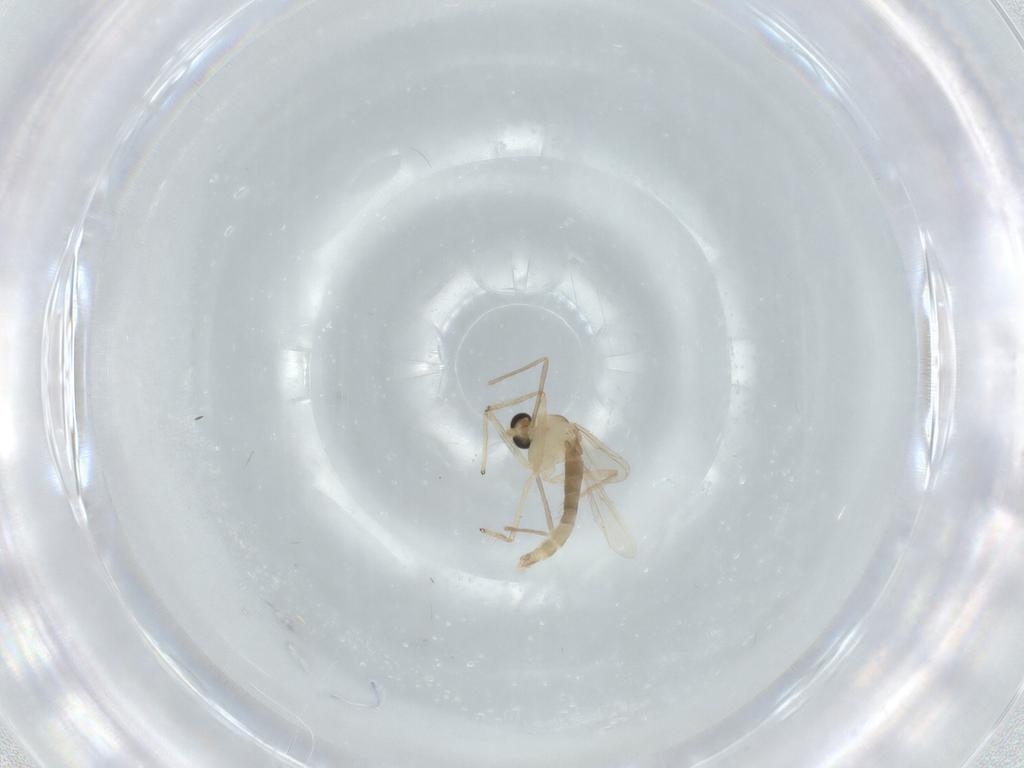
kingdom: Animalia
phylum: Arthropoda
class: Insecta
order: Diptera
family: Chironomidae
